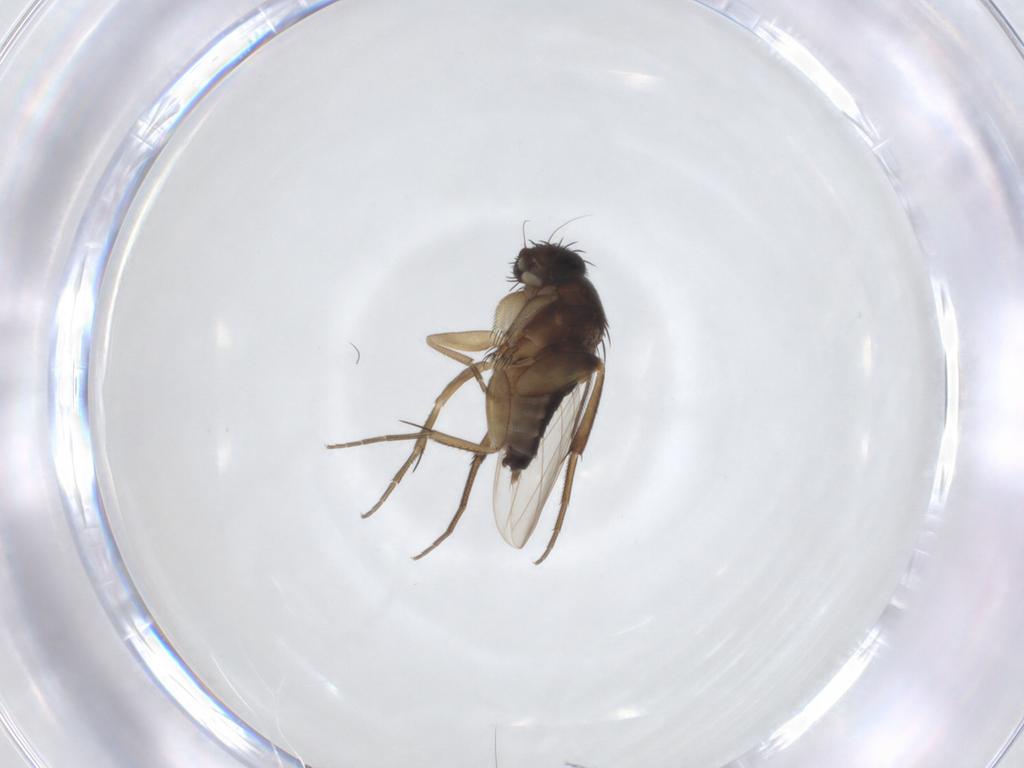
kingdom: Animalia
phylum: Arthropoda
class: Insecta
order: Diptera
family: Phoridae
